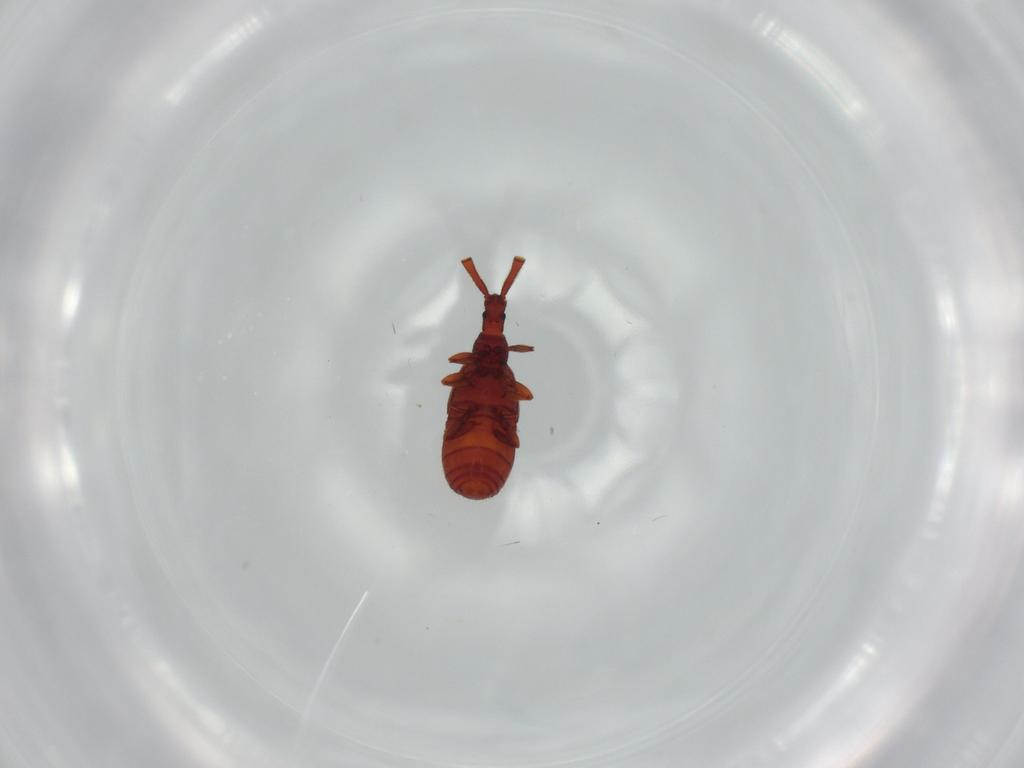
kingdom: Animalia
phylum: Arthropoda
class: Insecta
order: Coleoptera
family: Staphylinidae
